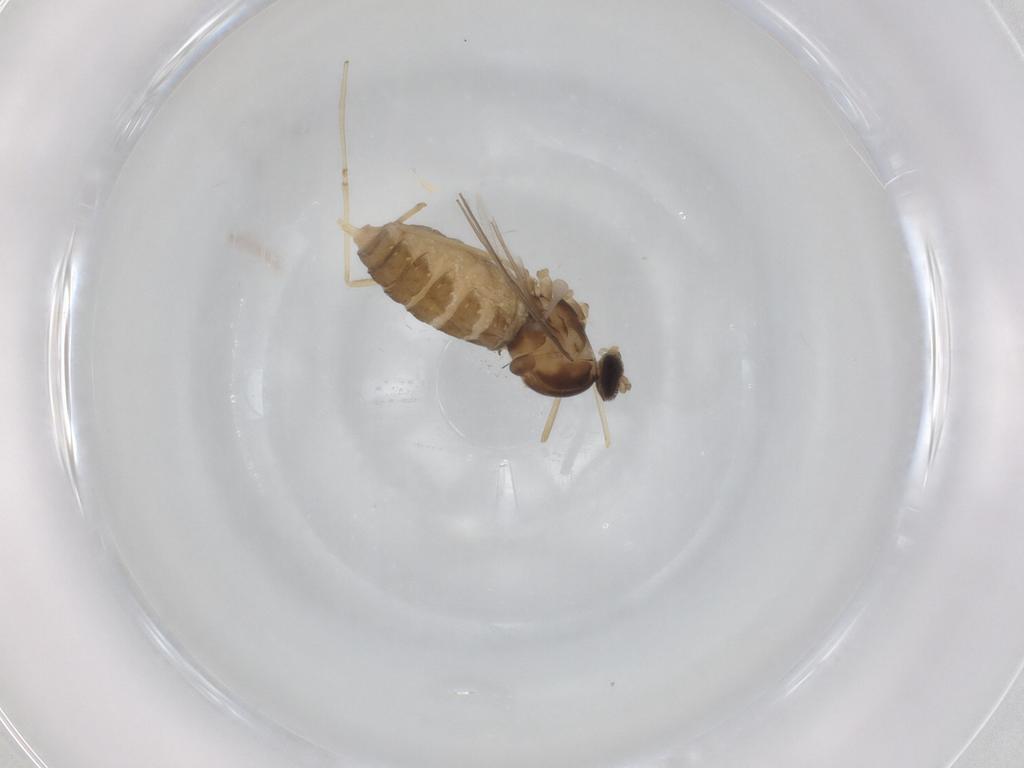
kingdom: Animalia
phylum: Arthropoda
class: Insecta
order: Diptera
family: Cecidomyiidae
